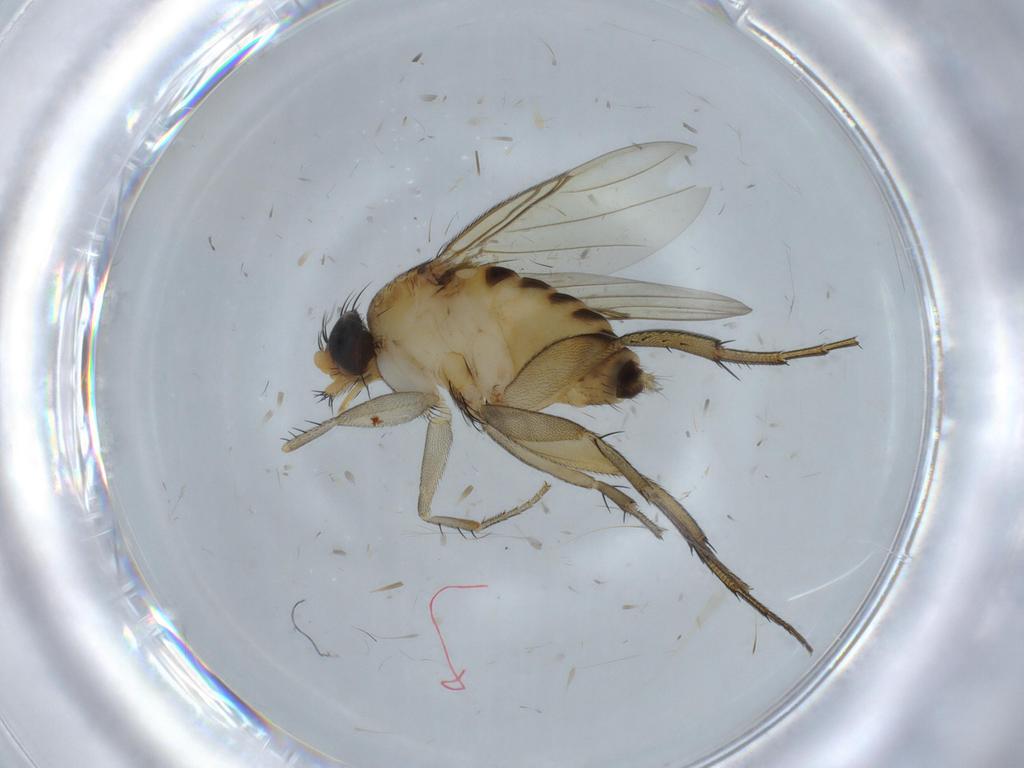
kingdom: Animalia
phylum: Arthropoda
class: Insecta
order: Diptera
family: Phoridae
